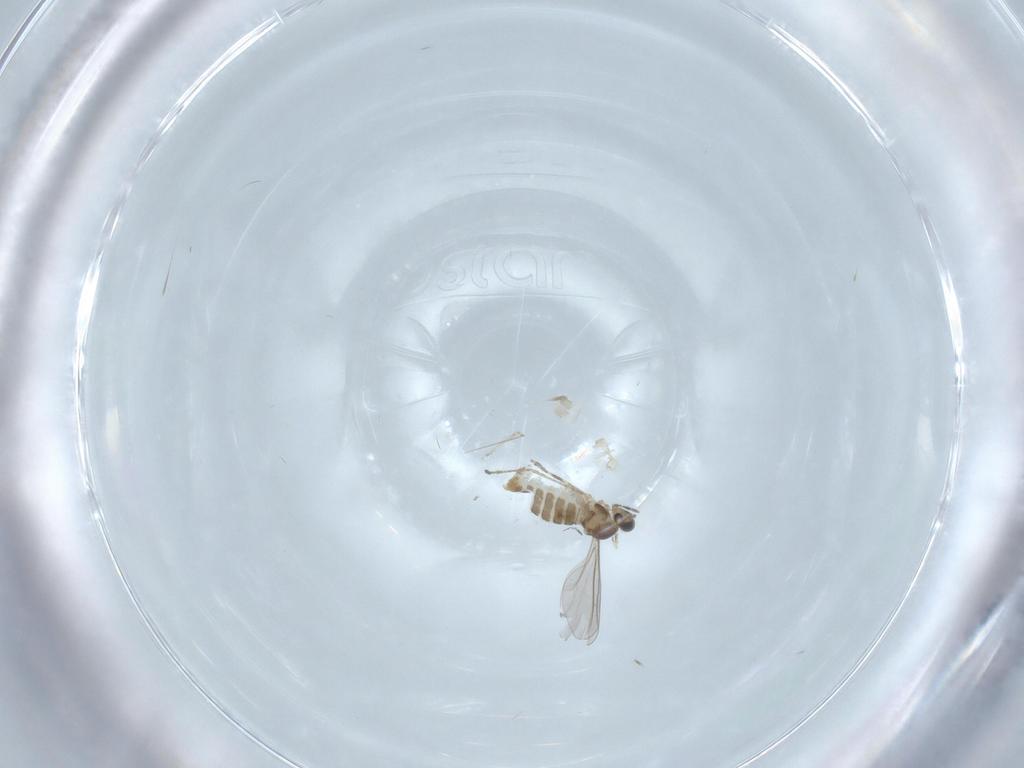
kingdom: Animalia
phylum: Arthropoda
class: Insecta
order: Diptera
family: Cecidomyiidae
